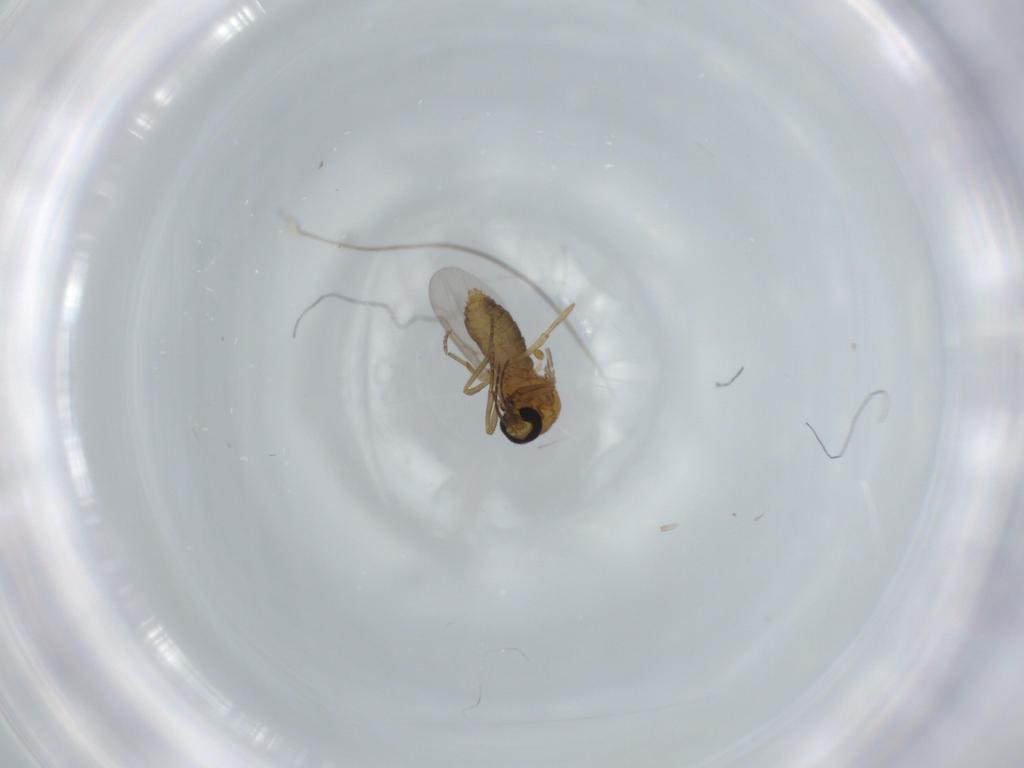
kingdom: Animalia
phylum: Arthropoda
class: Insecta
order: Diptera
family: Ceratopogonidae
